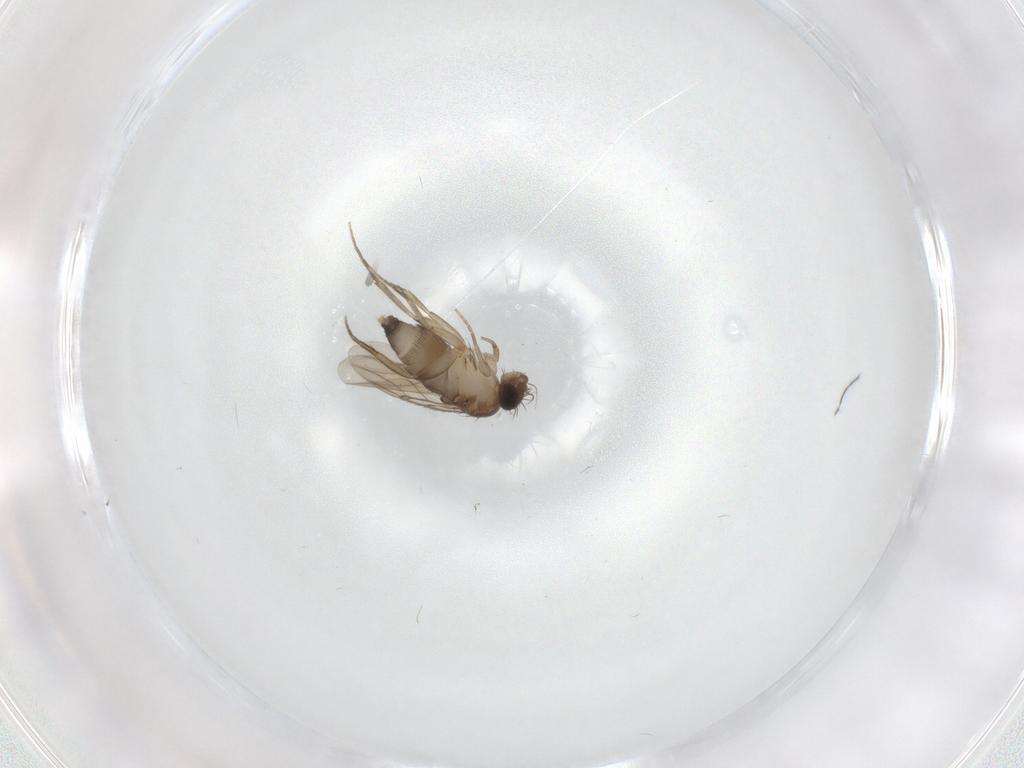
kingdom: Animalia
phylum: Arthropoda
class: Insecta
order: Diptera
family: Phoridae
